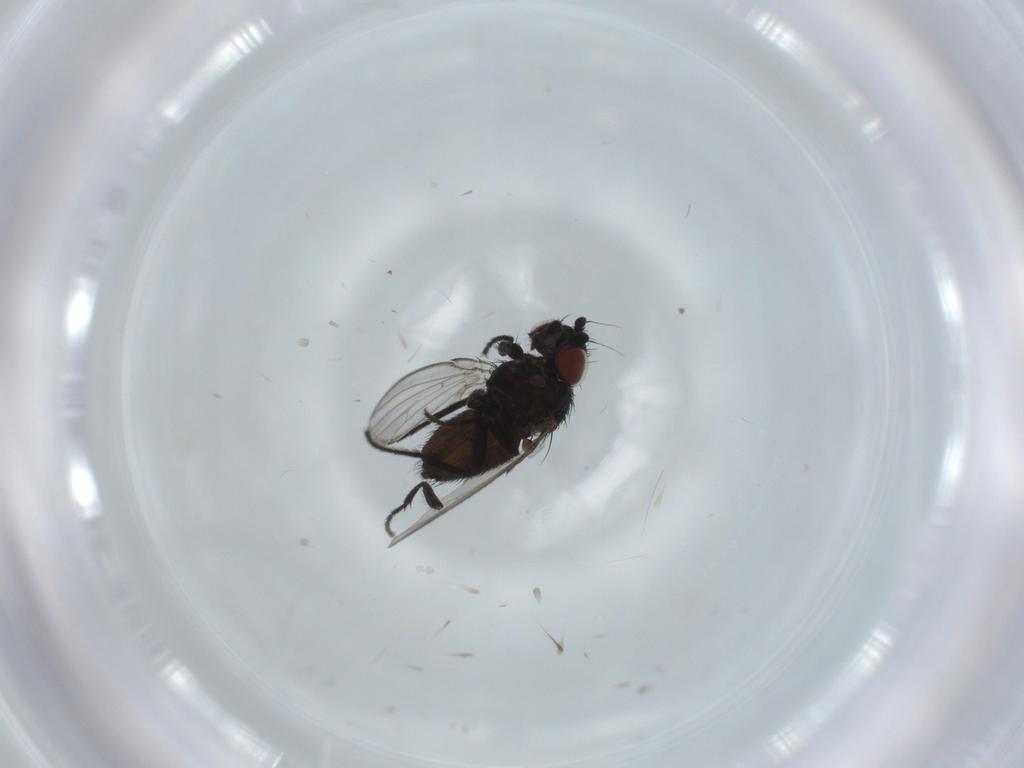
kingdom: Animalia
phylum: Arthropoda
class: Insecta
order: Diptera
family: Milichiidae
